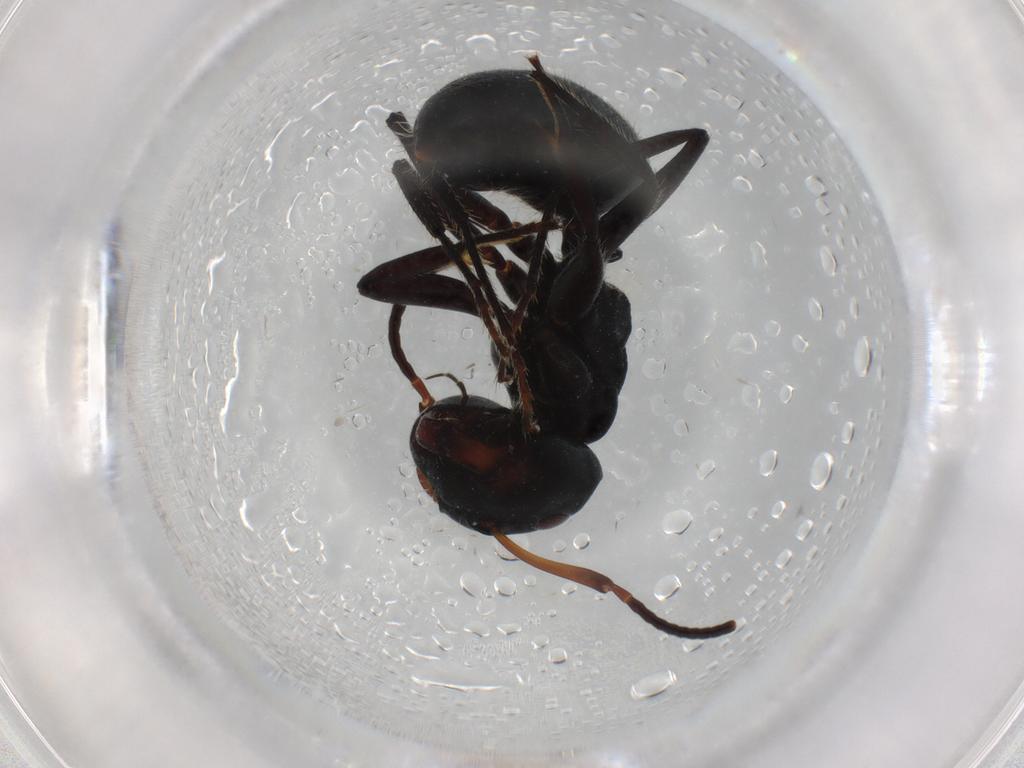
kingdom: Animalia
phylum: Arthropoda
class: Insecta
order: Hymenoptera
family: Formicidae
